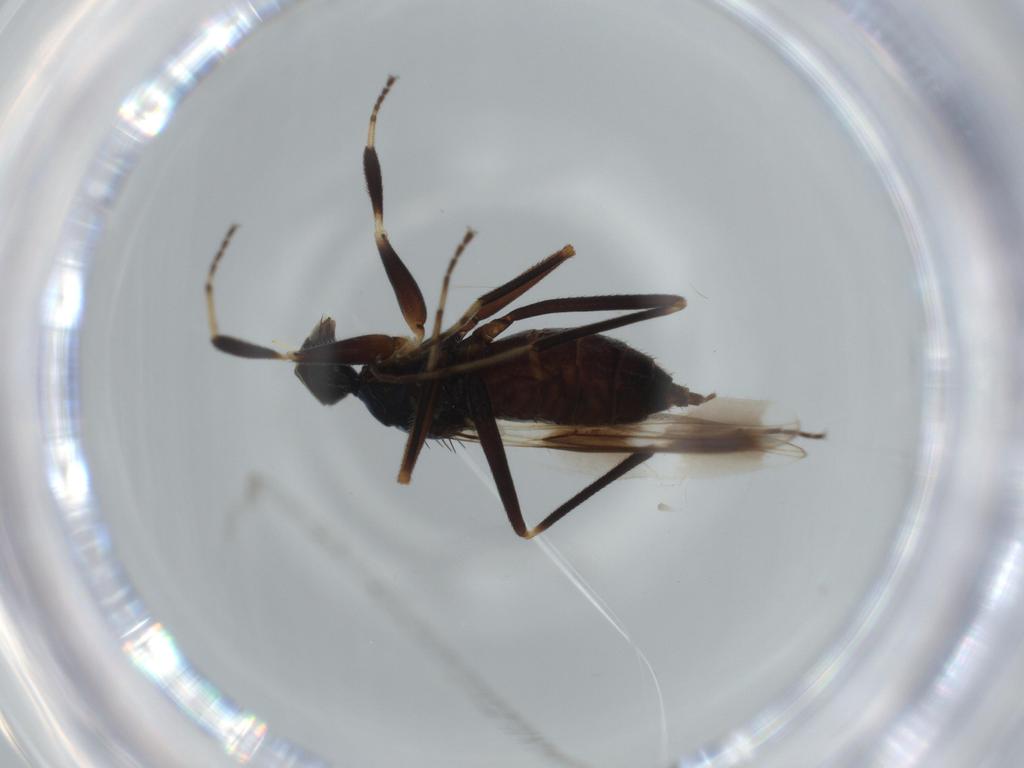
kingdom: Animalia
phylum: Arthropoda
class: Insecta
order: Diptera
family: Hybotidae
